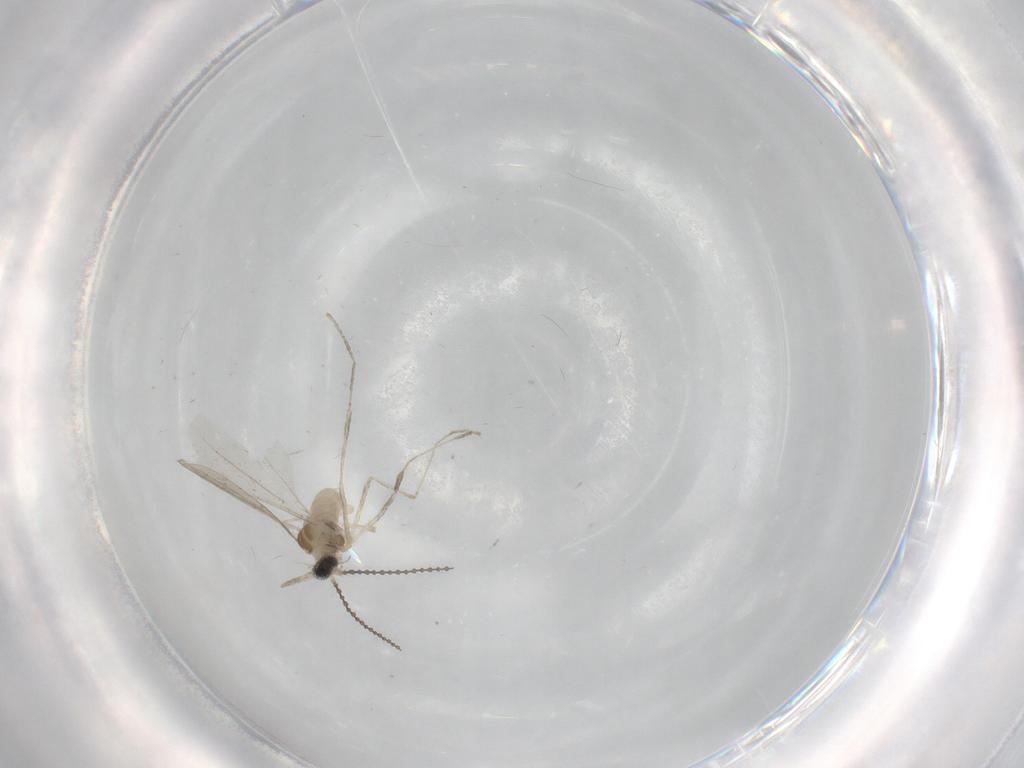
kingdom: Animalia
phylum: Arthropoda
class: Insecta
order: Diptera
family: Cecidomyiidae
